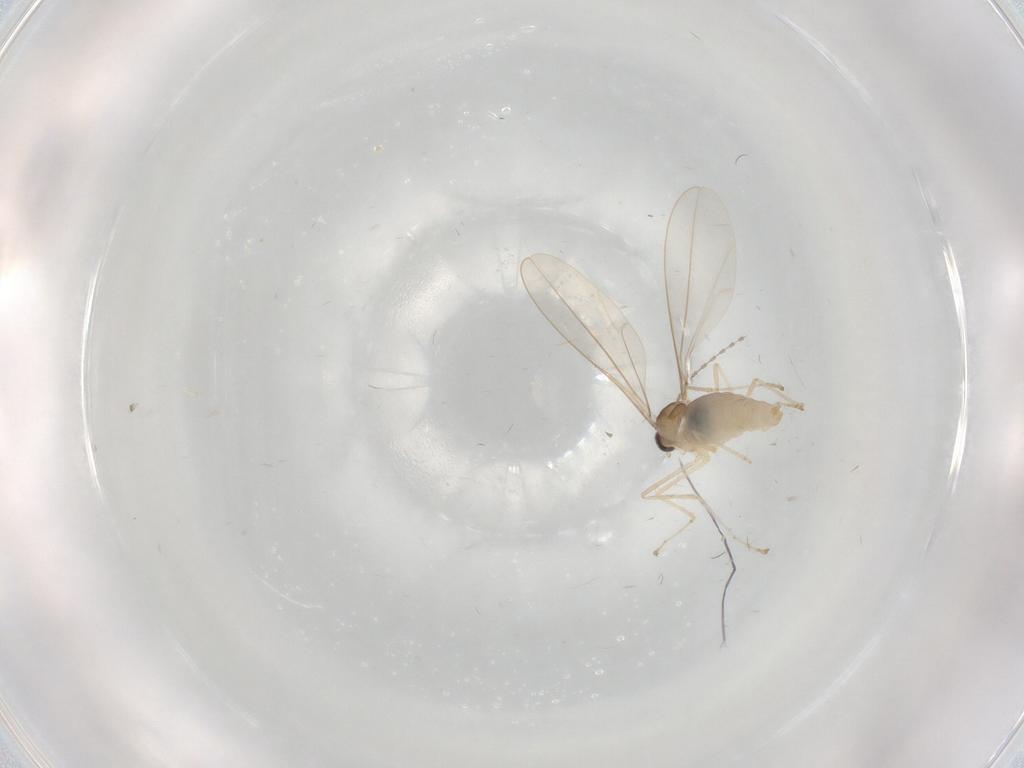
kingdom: Animalia
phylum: Arthropoda
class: Insecta
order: Diptera
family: Cecidomyiidae
